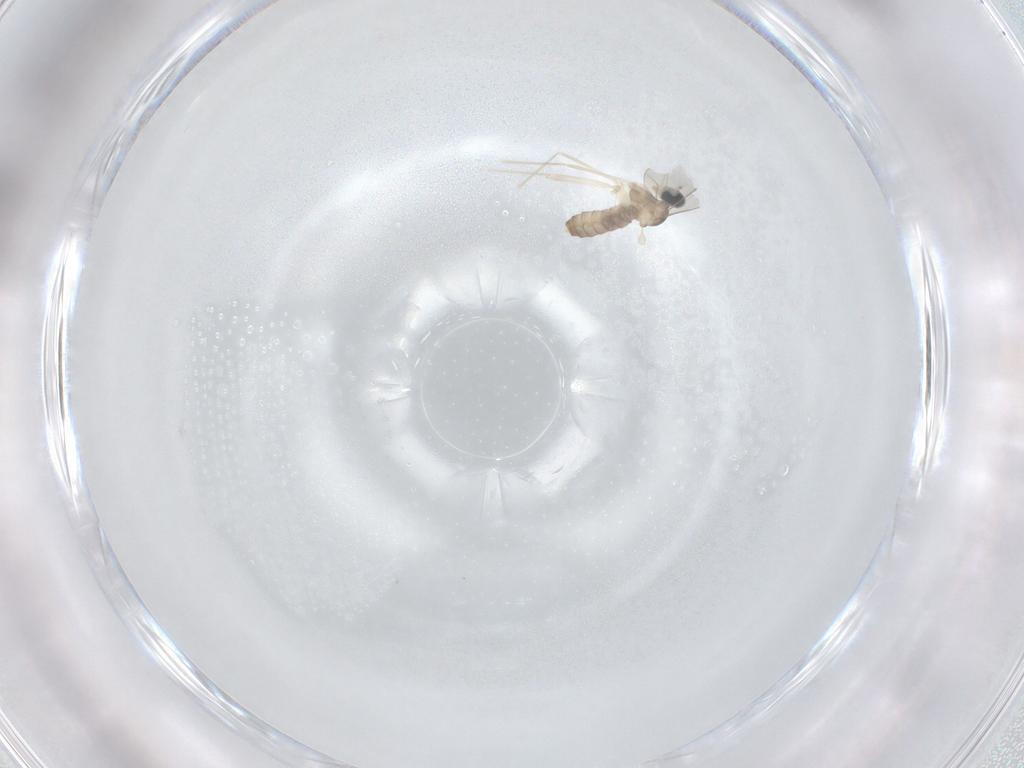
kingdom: Animalia
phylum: Arthropoda
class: Insecta
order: Diptera
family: Cecidomyiidae
